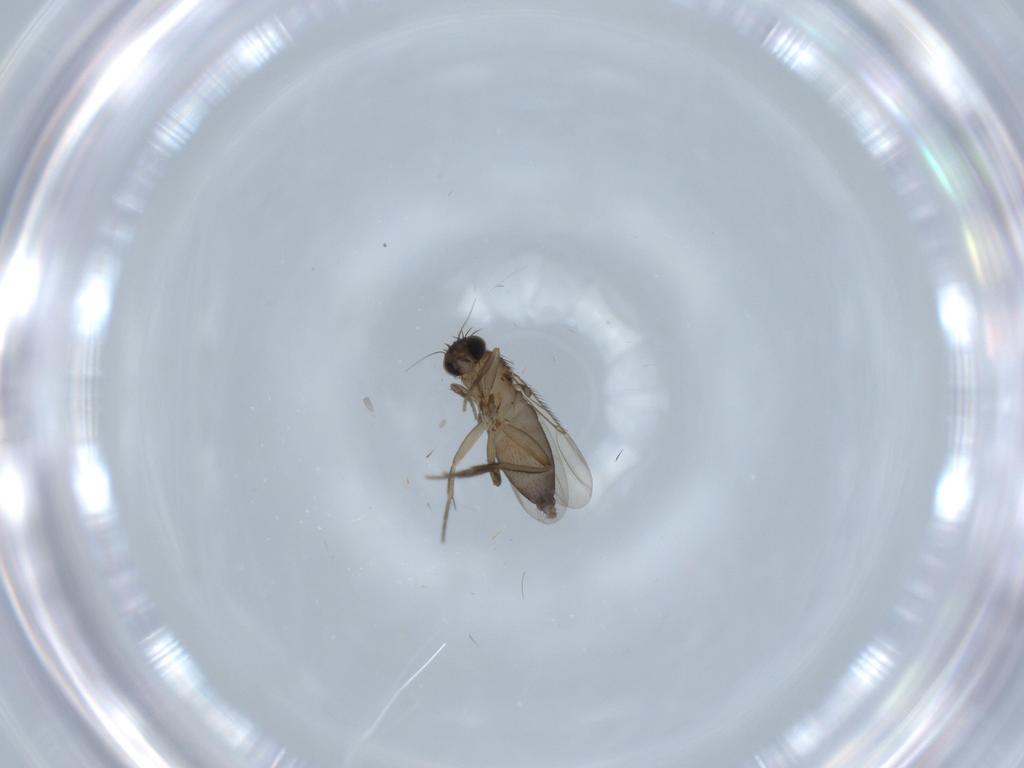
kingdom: Animalia
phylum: Arthropoda
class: Insecta
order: Diptera
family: Phoridae
